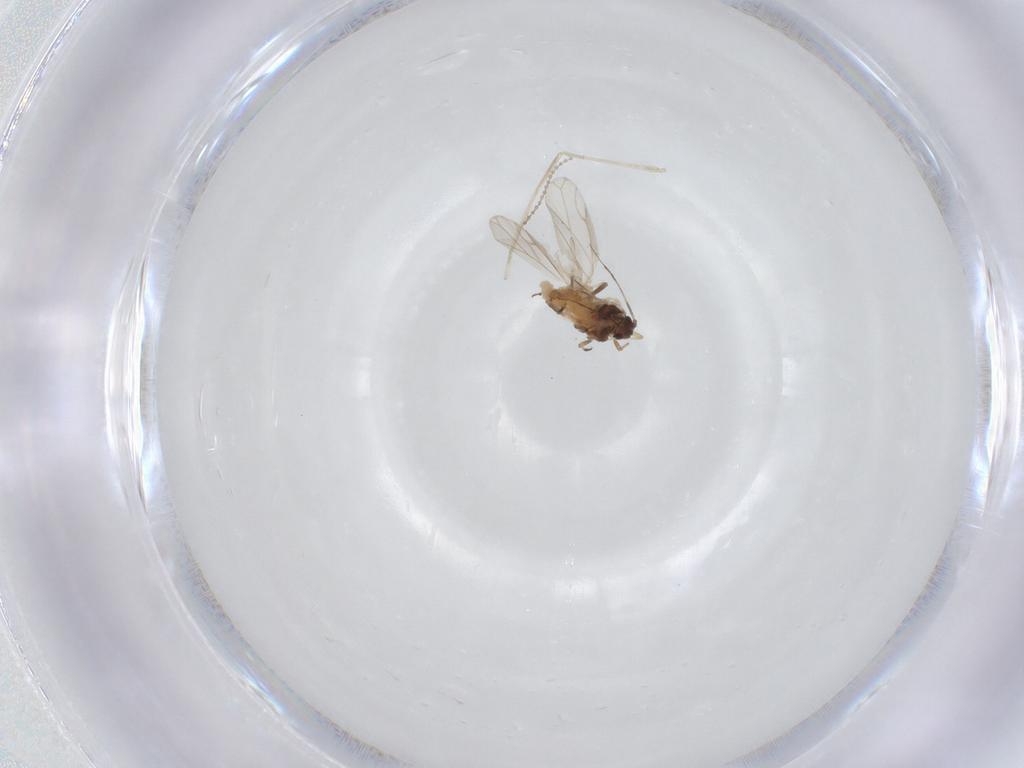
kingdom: Animalia
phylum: Arthropoda
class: Insecta
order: Hemiptera
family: Aphididae
